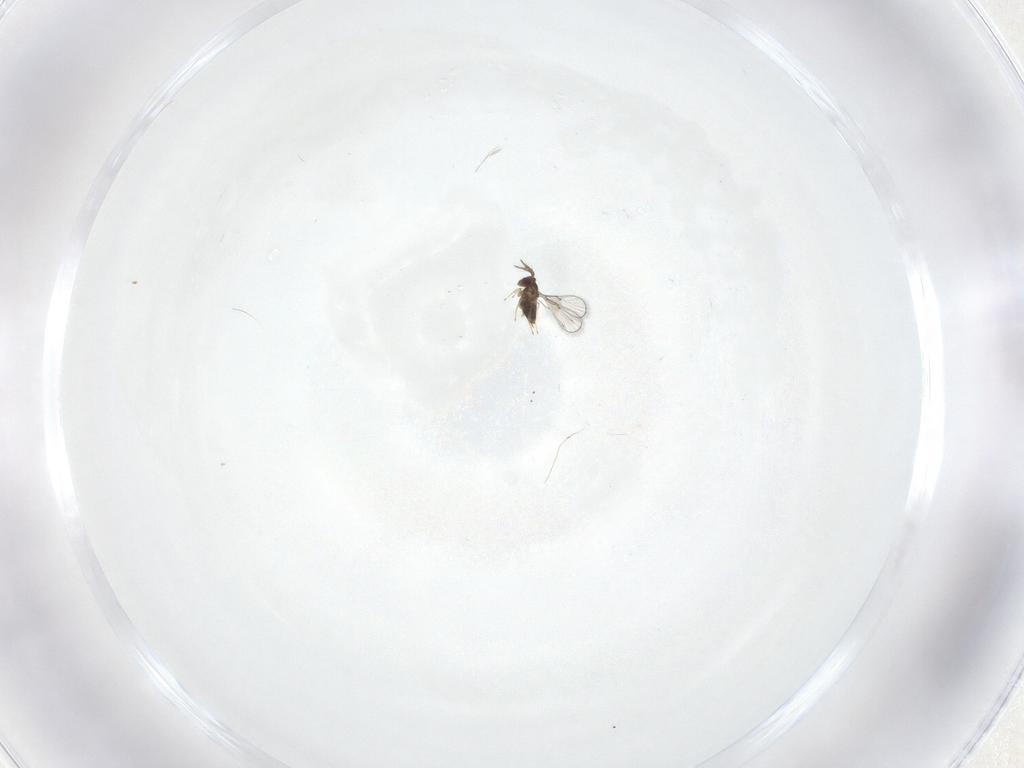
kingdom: Animalia
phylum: Arthropoda
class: Insecta
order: Hymenoptera
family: Trichogrammatidae
